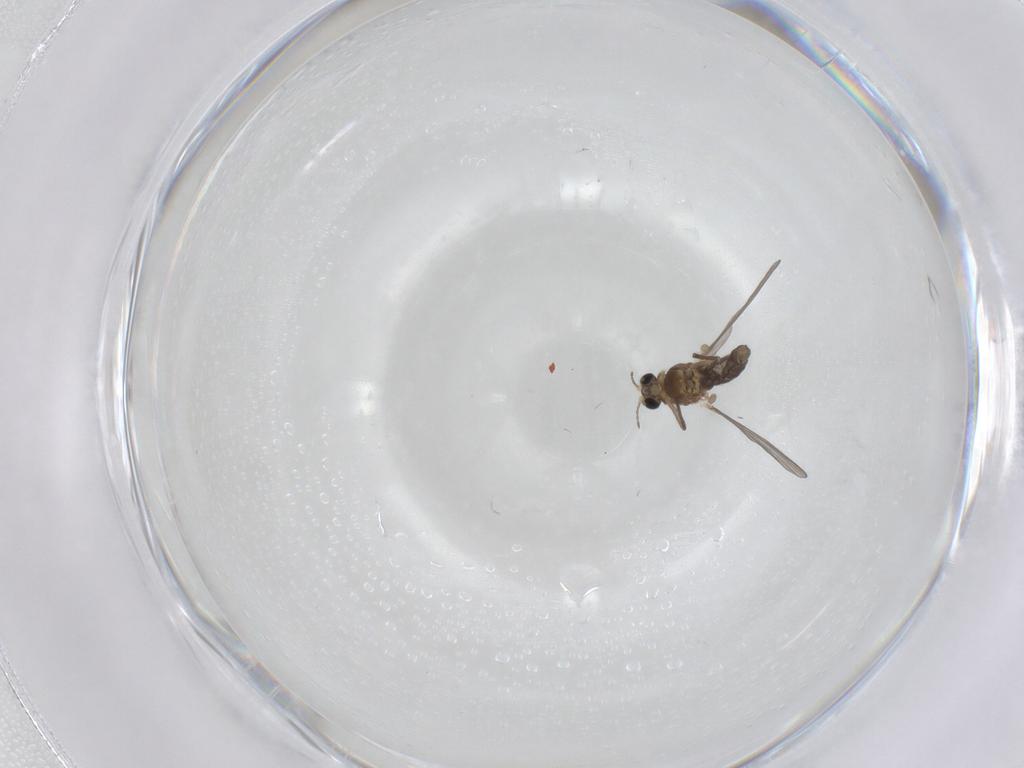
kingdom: Animalia
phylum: Arthropoda
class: Insecta
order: Diptera
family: Chironomidae
